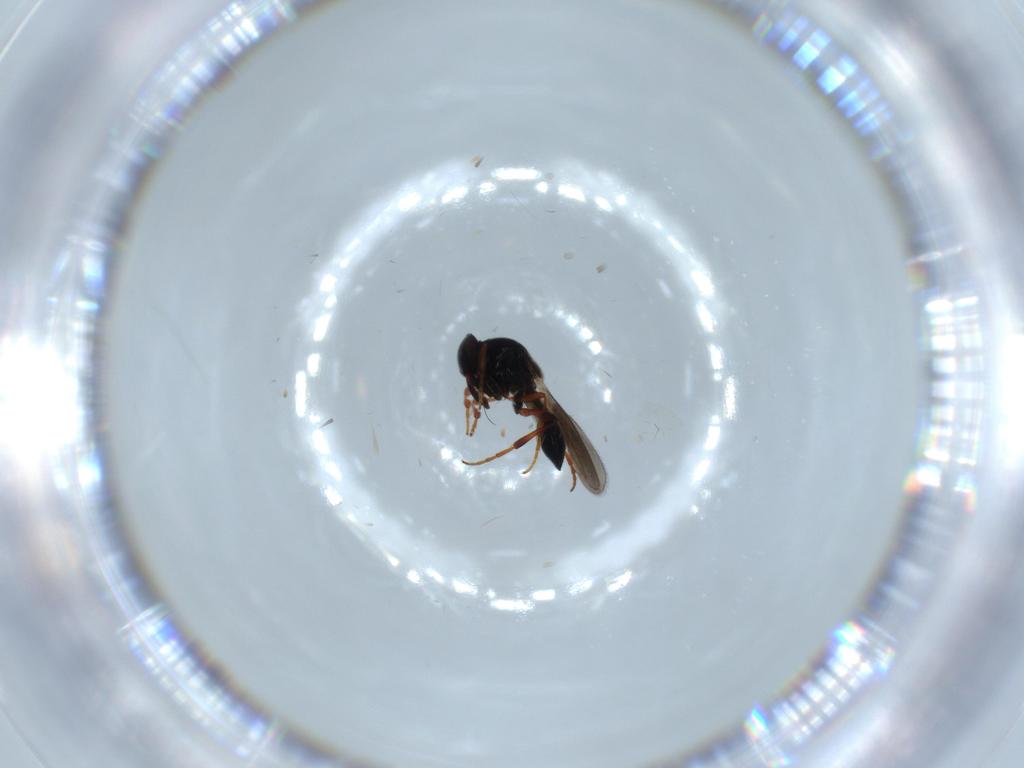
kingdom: Animalia
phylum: Arthropoda
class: Insecta
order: Hymenoptera
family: Scelionidae
